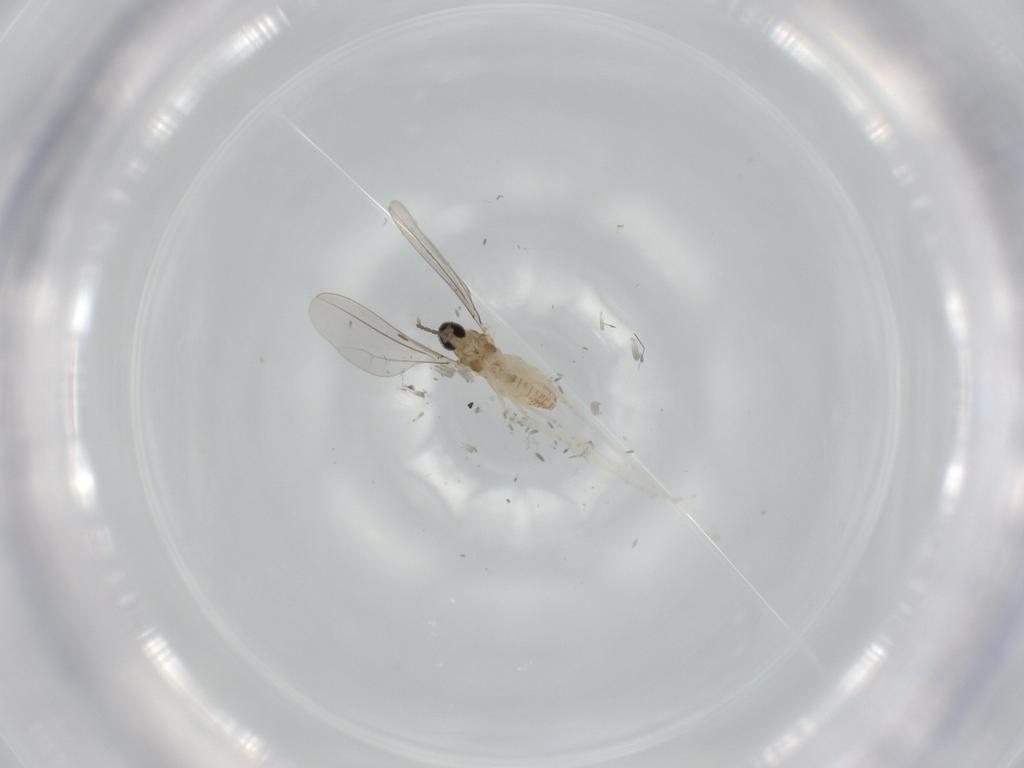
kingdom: Animalia
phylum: Arthropoda
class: Insecta
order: Diptera
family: Cecidomyiidae
